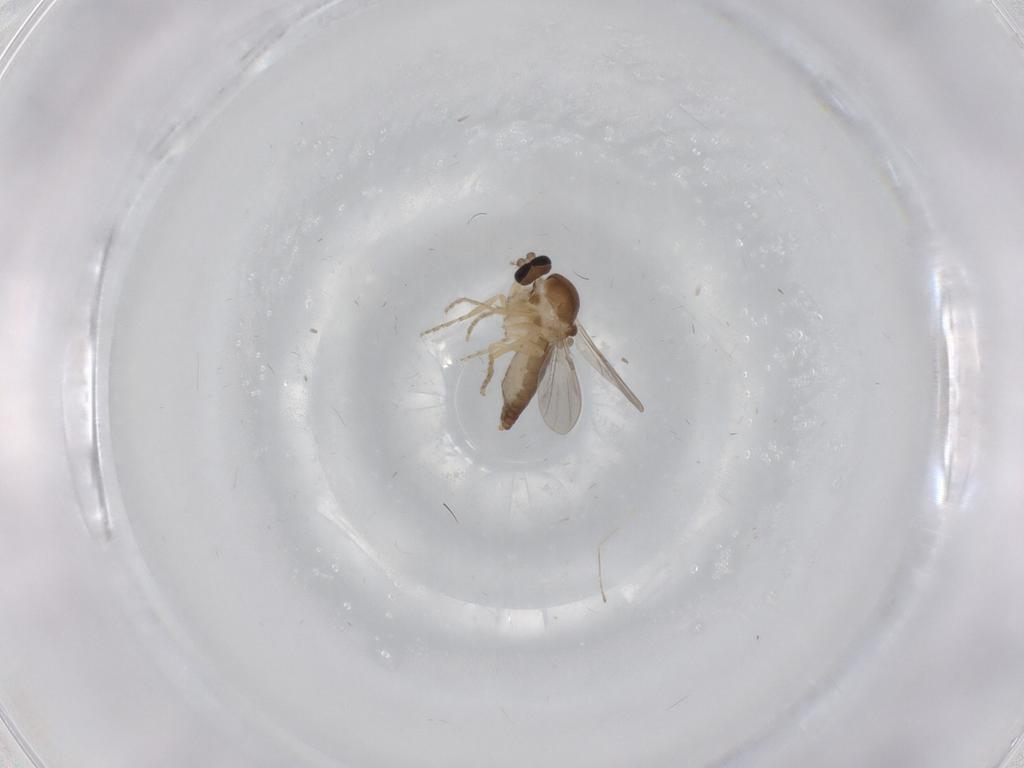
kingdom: Animalia
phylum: Arthropoda
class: Insecta
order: Diptera
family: Ceratopogonidae
